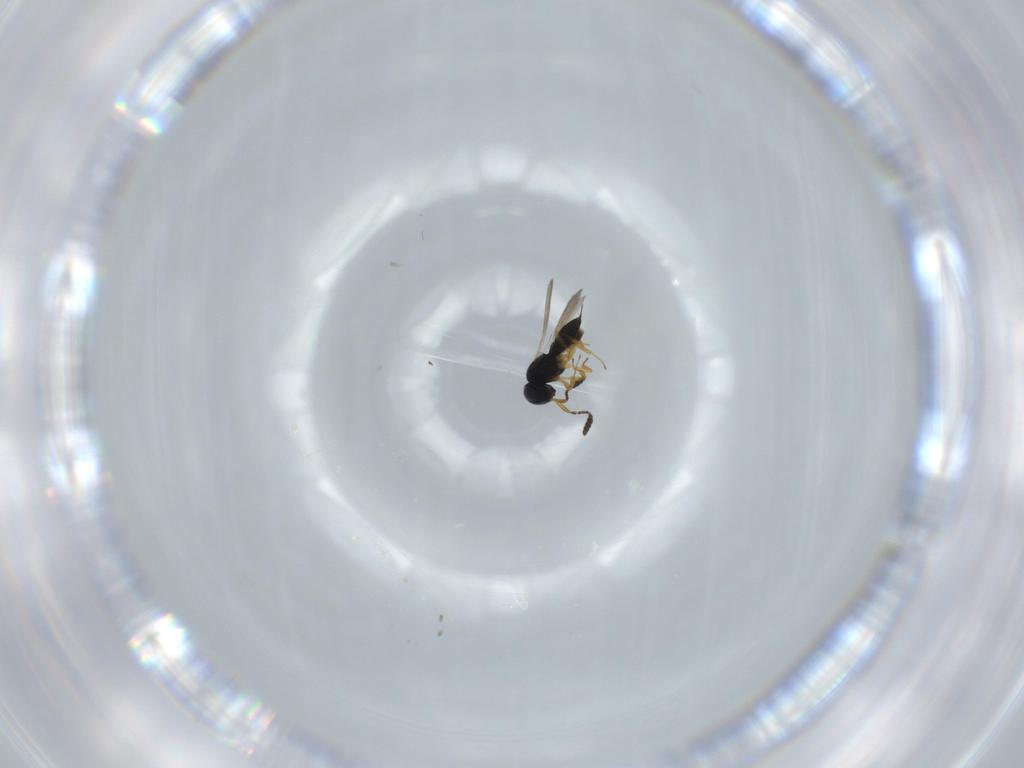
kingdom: Animalia
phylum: Arthropoda
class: Insecta
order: Hymenoptera
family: Scelionidae
